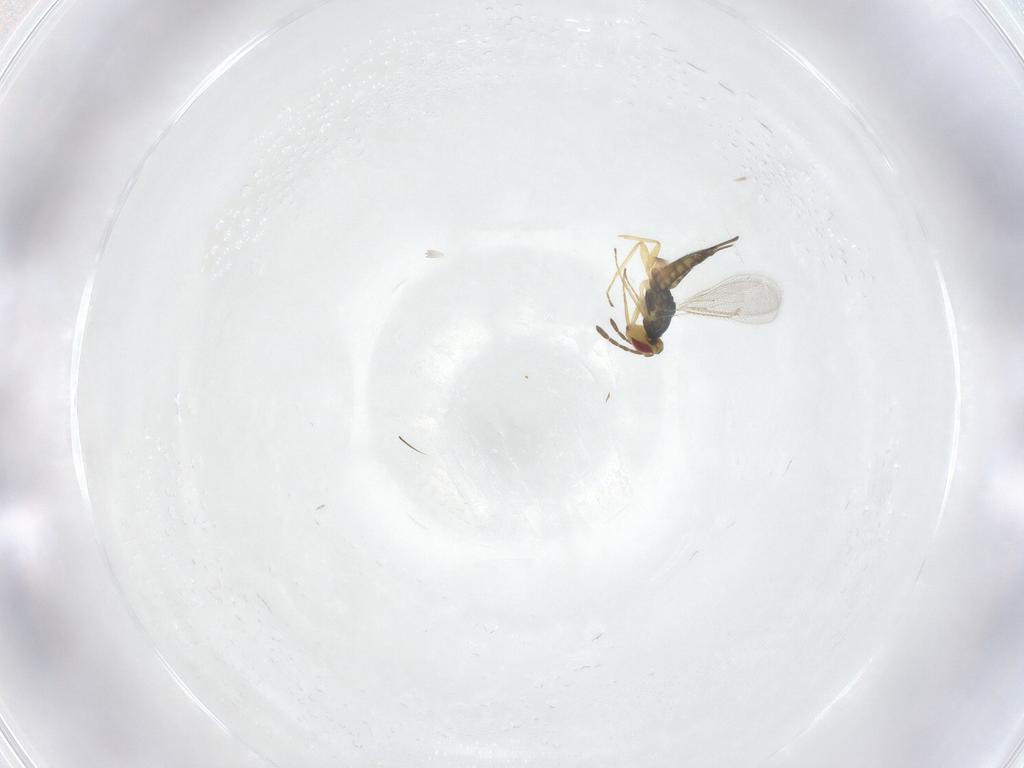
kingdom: Animalia
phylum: Arthropoda
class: Insecta
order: Hymenoptera
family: Eulophidae
